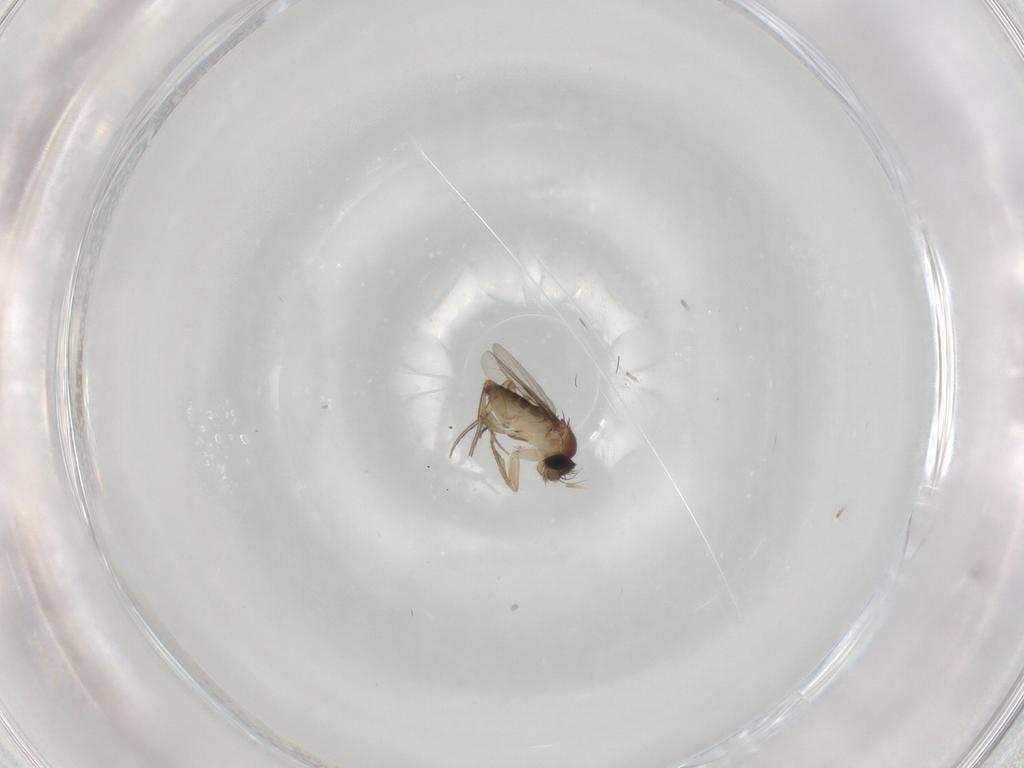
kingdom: Animalia
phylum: Arthropoda
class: Insecta
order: Diptera
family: Phoridae
